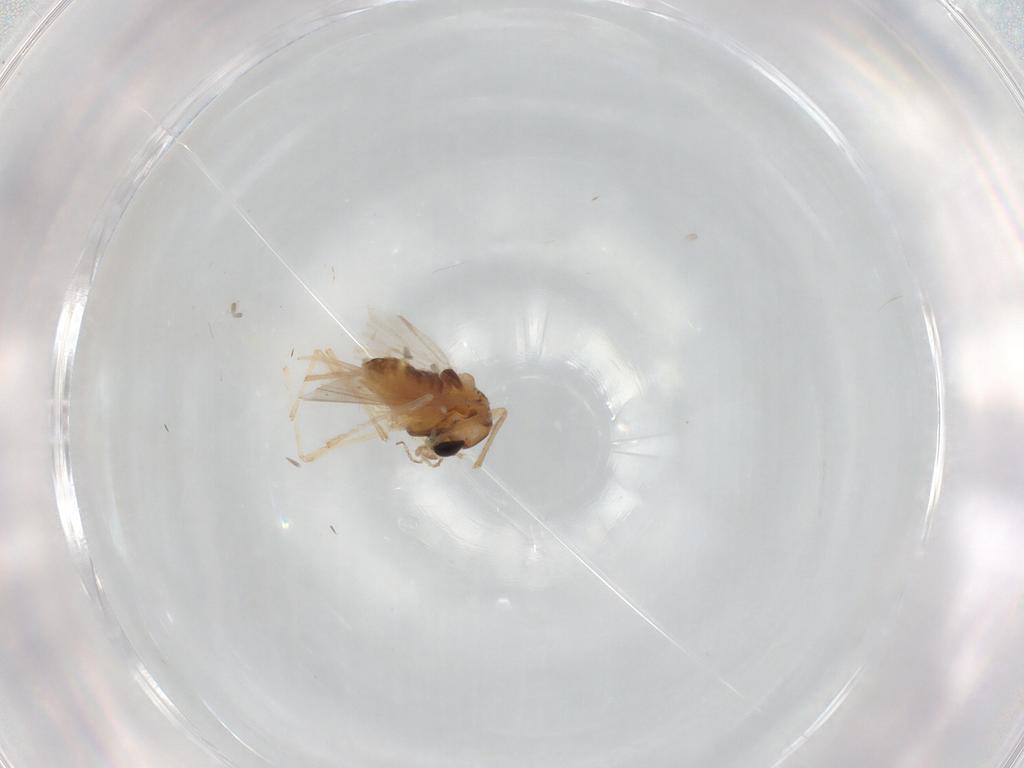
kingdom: Animalia
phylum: Arthropoda
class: Insecta
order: Diptera
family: Chironomidae
